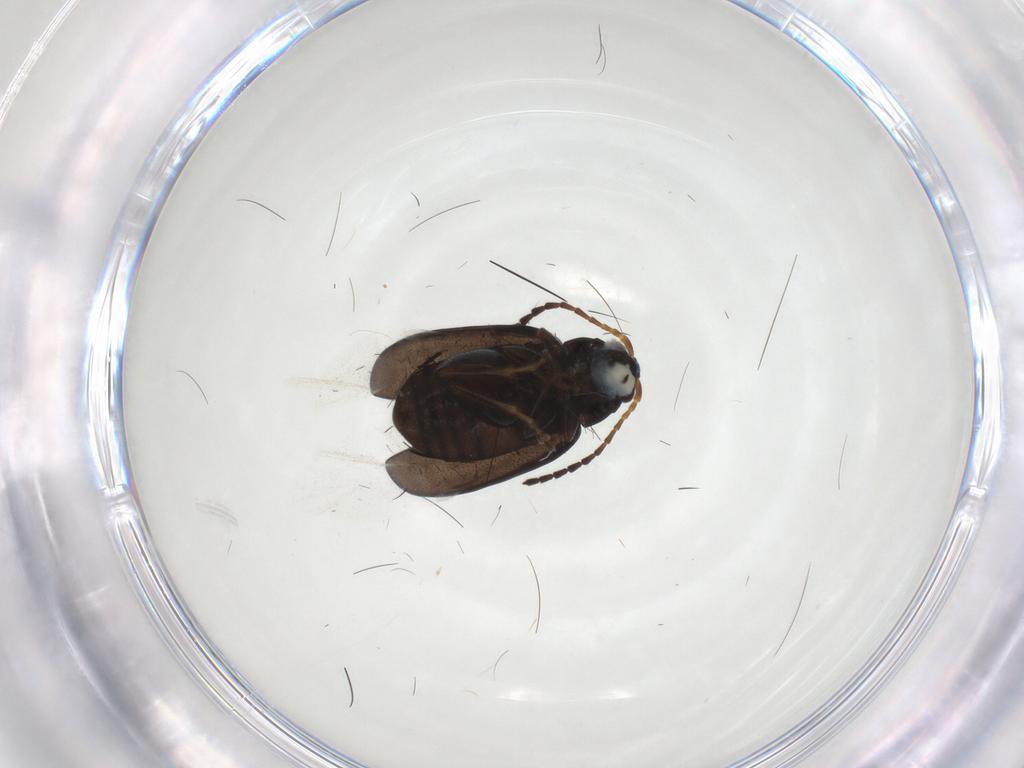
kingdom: Animalia
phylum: Arthropoda
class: Insecta
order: Coleoptera
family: Chrysomelidae
